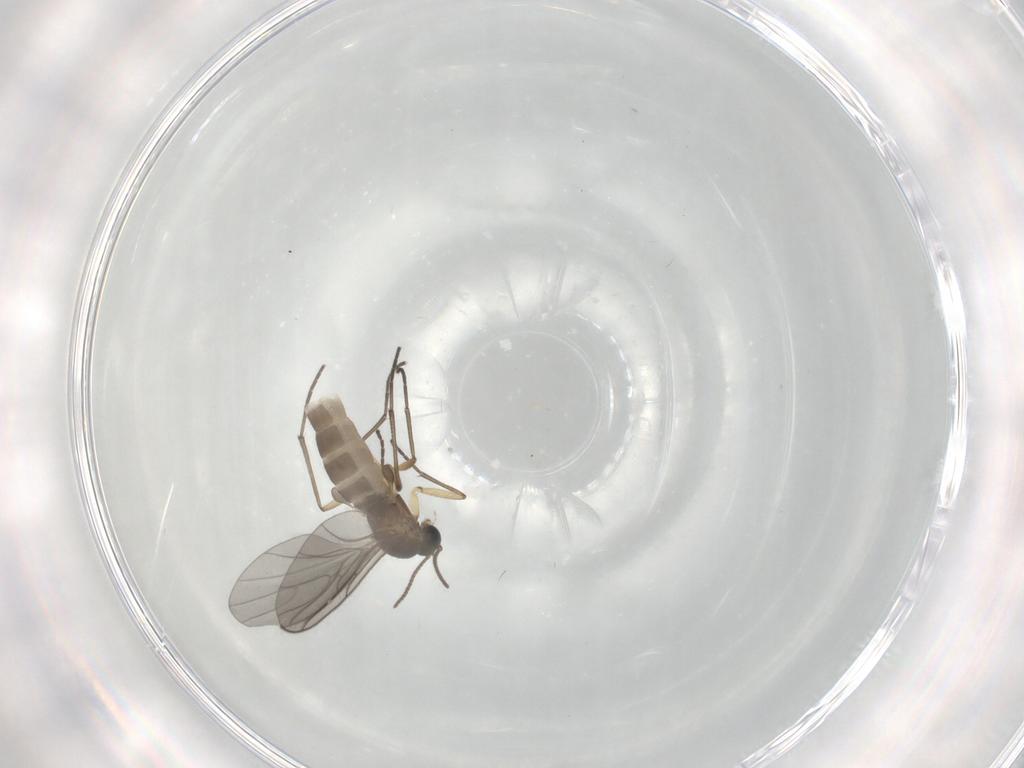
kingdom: Animalia
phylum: Arthropoda
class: Insecta
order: Diptera
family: Sciaridae
